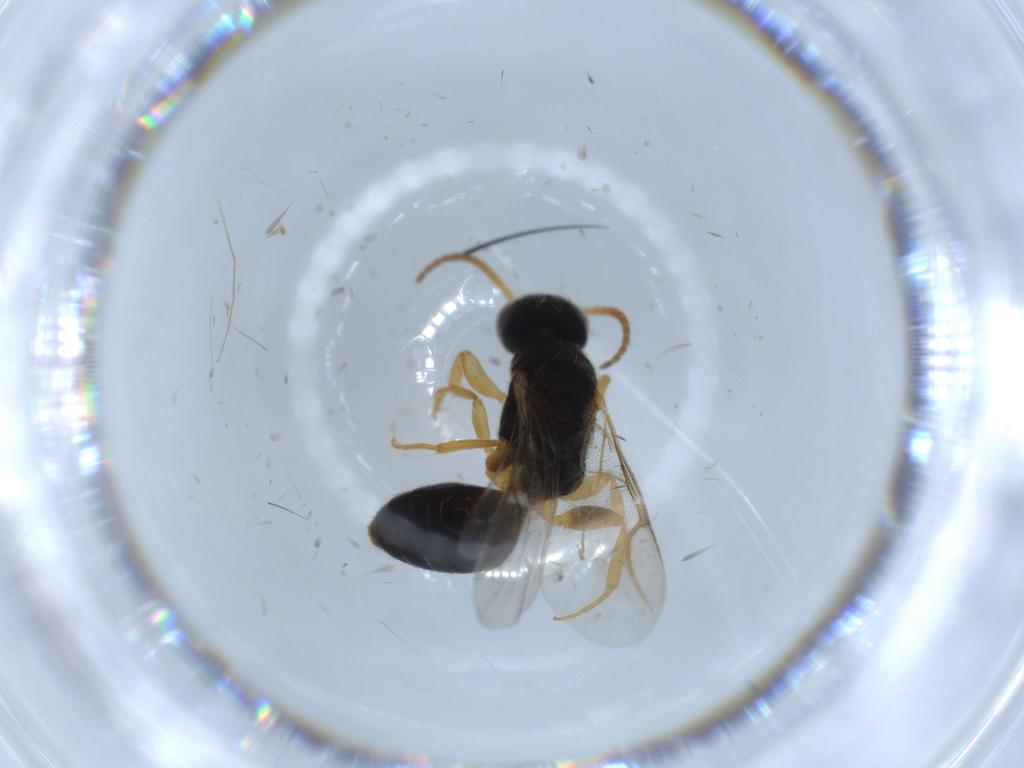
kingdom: Animalia
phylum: Arthropoda
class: Insecta
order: Hymenoptera
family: Bethylidae
